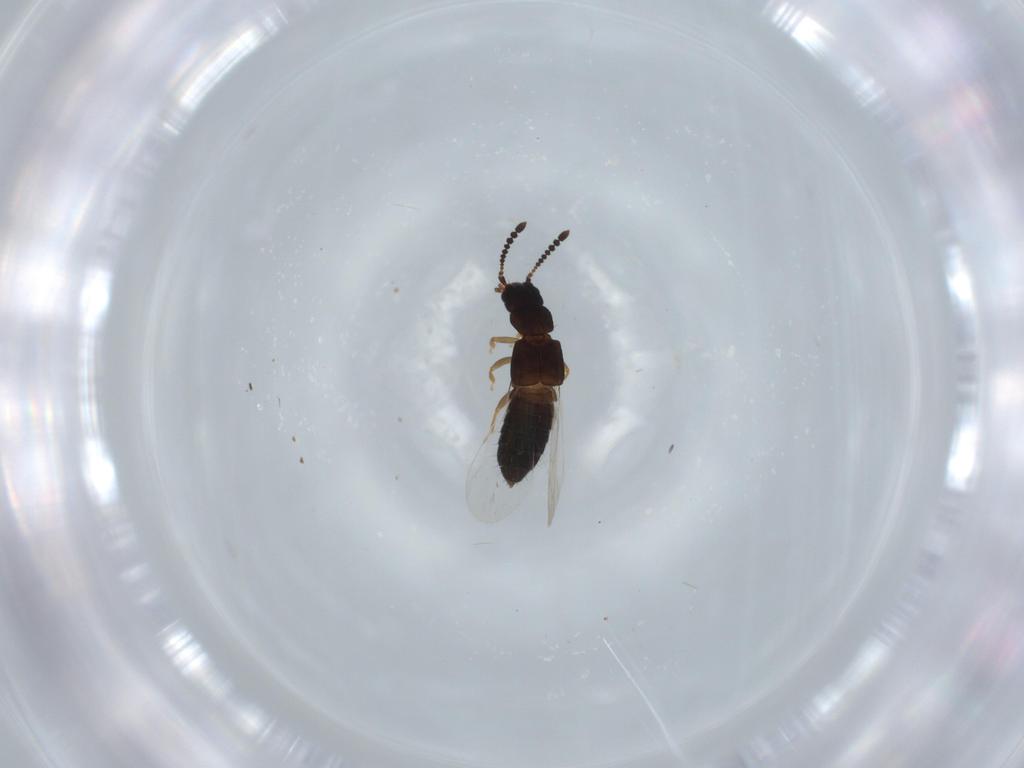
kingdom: Animalia
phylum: Arthropoda
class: Insecta
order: Coleoptera
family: Staphylinidae
